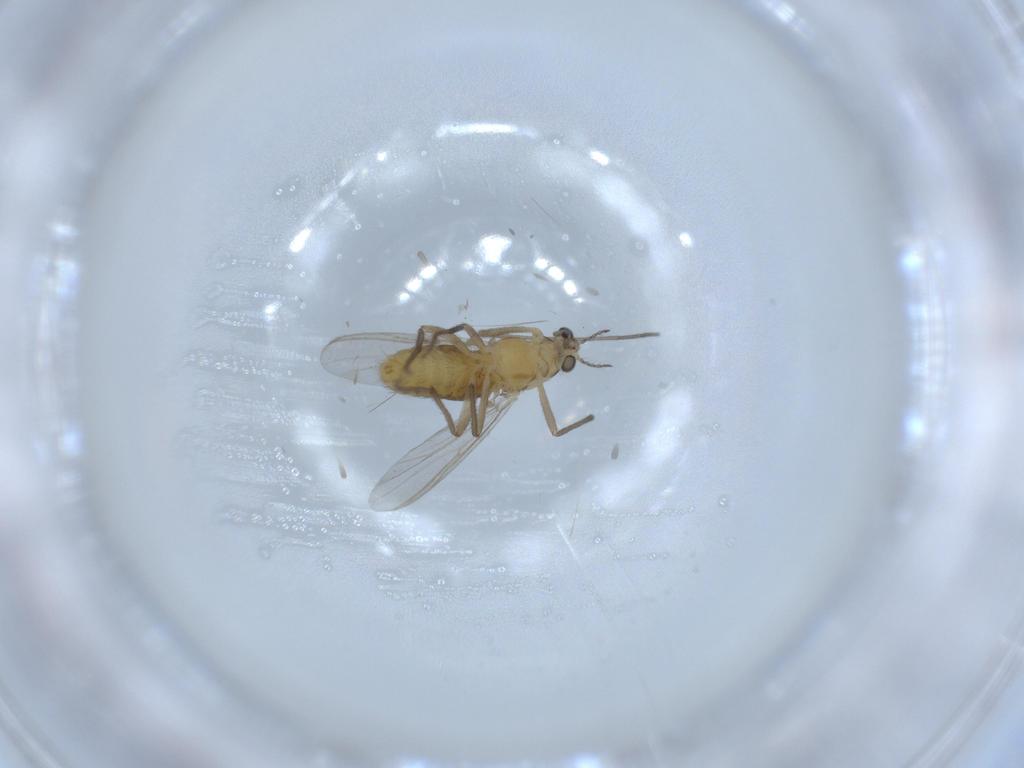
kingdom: Animalia
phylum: Arthropoda
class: Insecta
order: Diptera
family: Chironomidae
